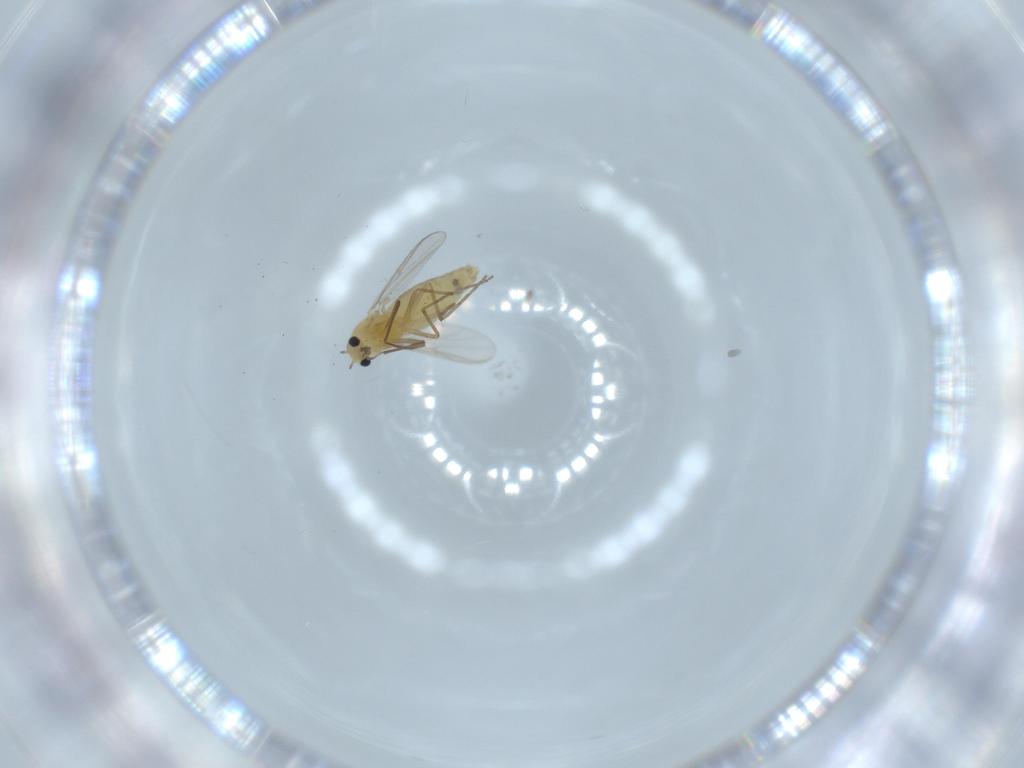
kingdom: Animalia
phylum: Arthropoda
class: Insecta
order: Diptera
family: Chironomidae
